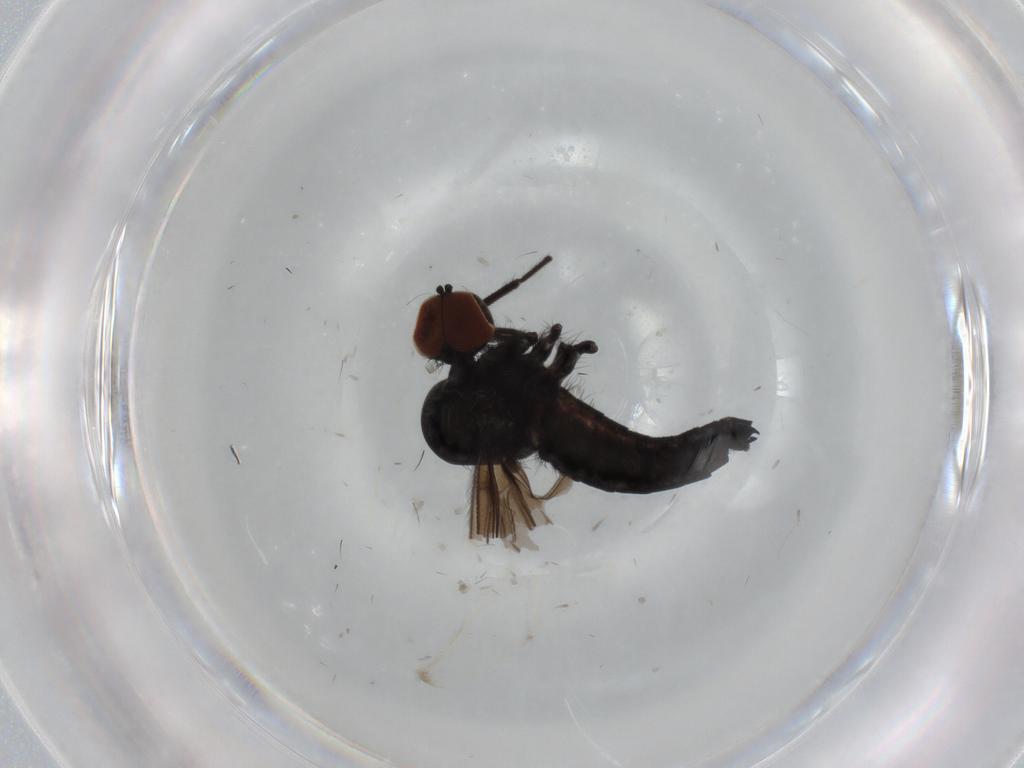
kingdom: Animalia
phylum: Arthropoda
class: Insecta
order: Diptera
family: Hybotidae
